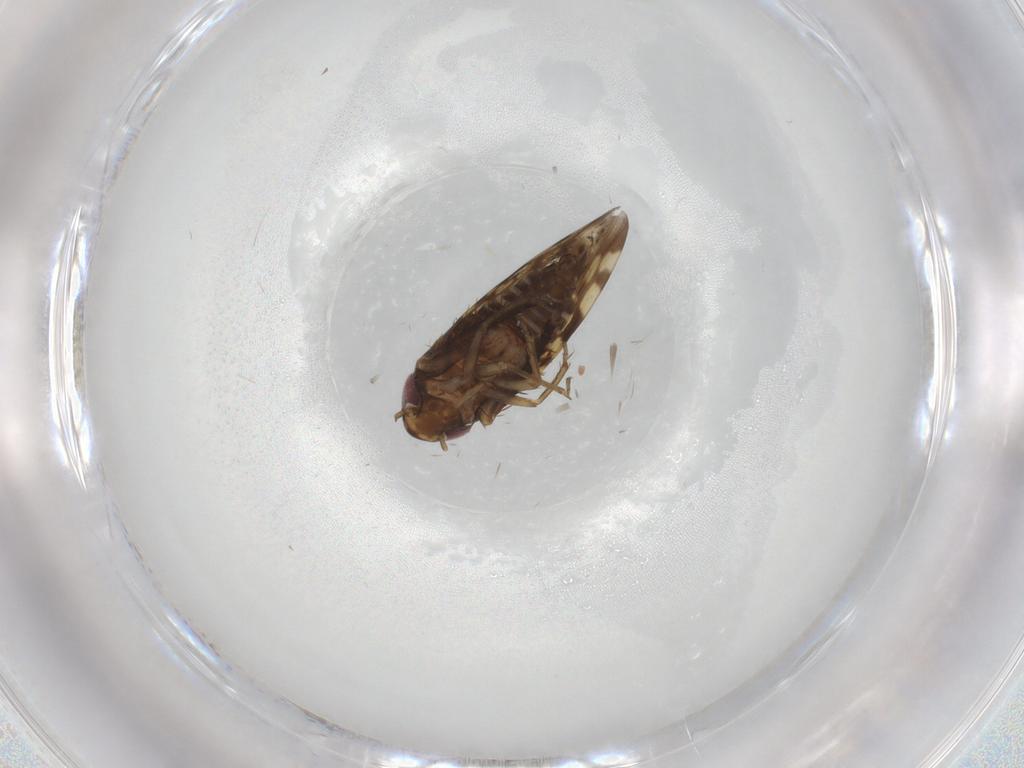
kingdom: Animalia
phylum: Arthropoda
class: Insecta
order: Hemiptera
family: Cicadellidae
